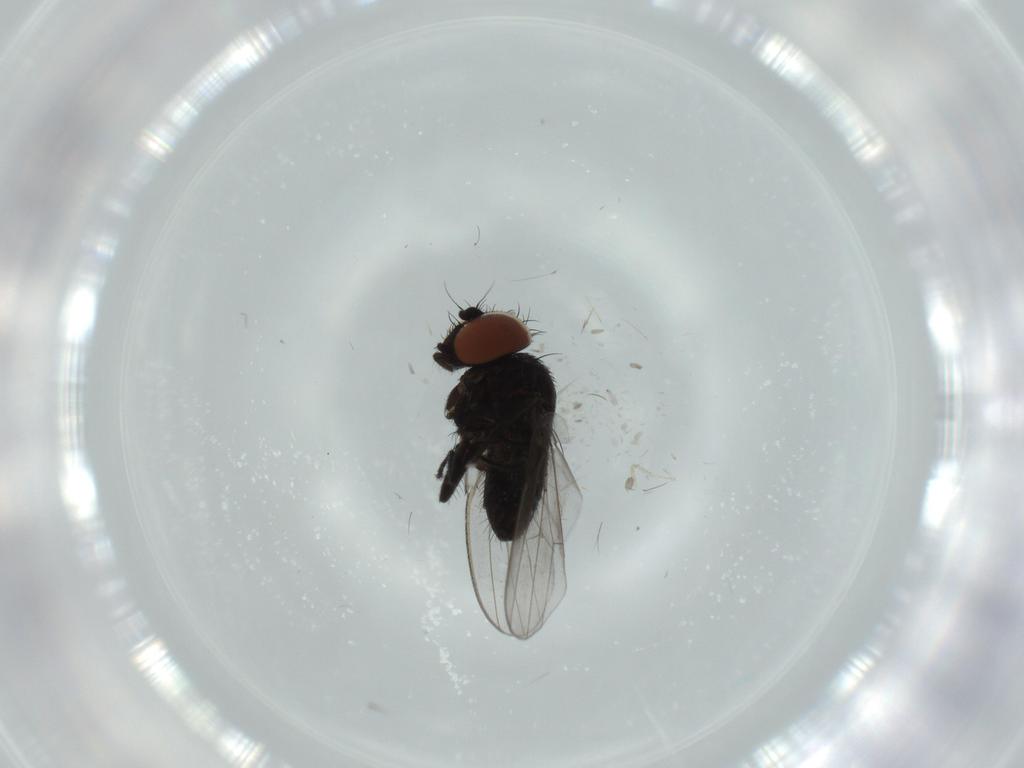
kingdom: Animalia
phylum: Arthropoda
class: Insecta
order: Diptera
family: Milichiidae
